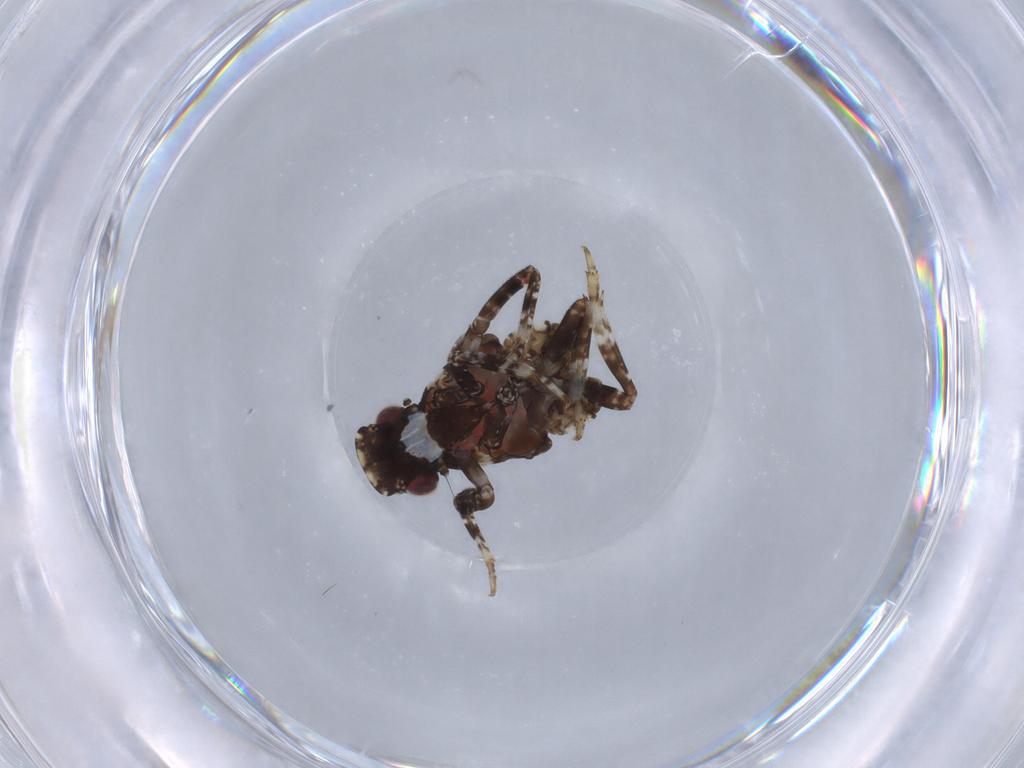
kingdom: Animalia
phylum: Arthropoda
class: Insecta
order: Hemiptera
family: Fulgoridae
